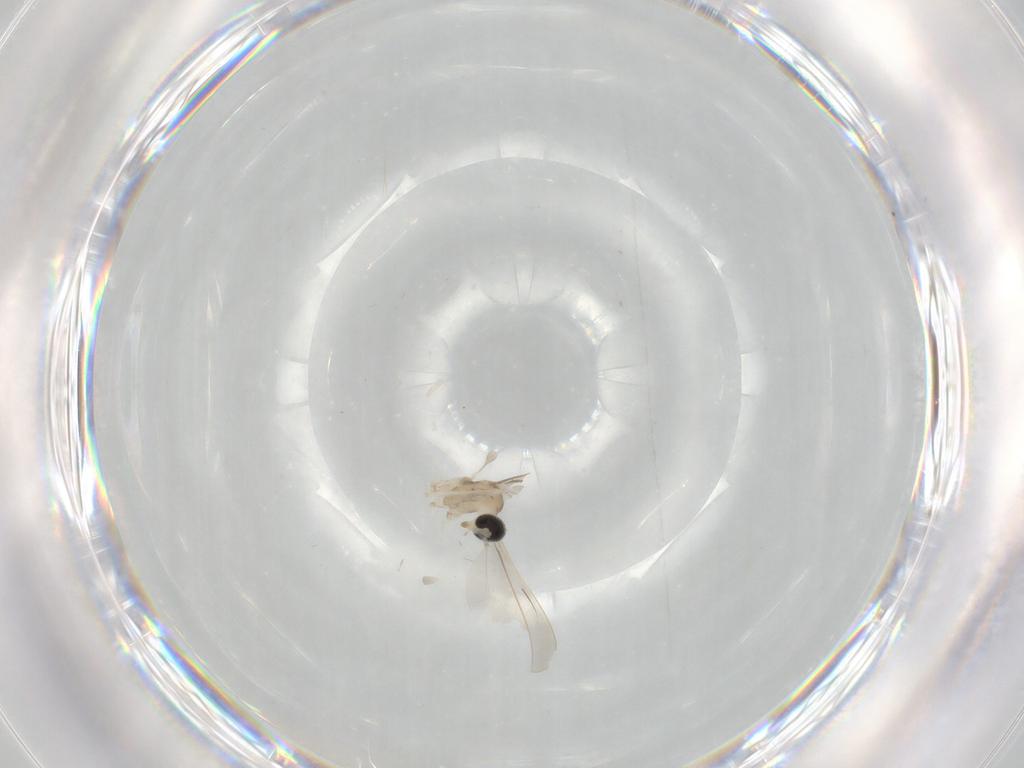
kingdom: Animalia
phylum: Arthropoda
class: Insecta
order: Diptera
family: Cecidomyiidae
